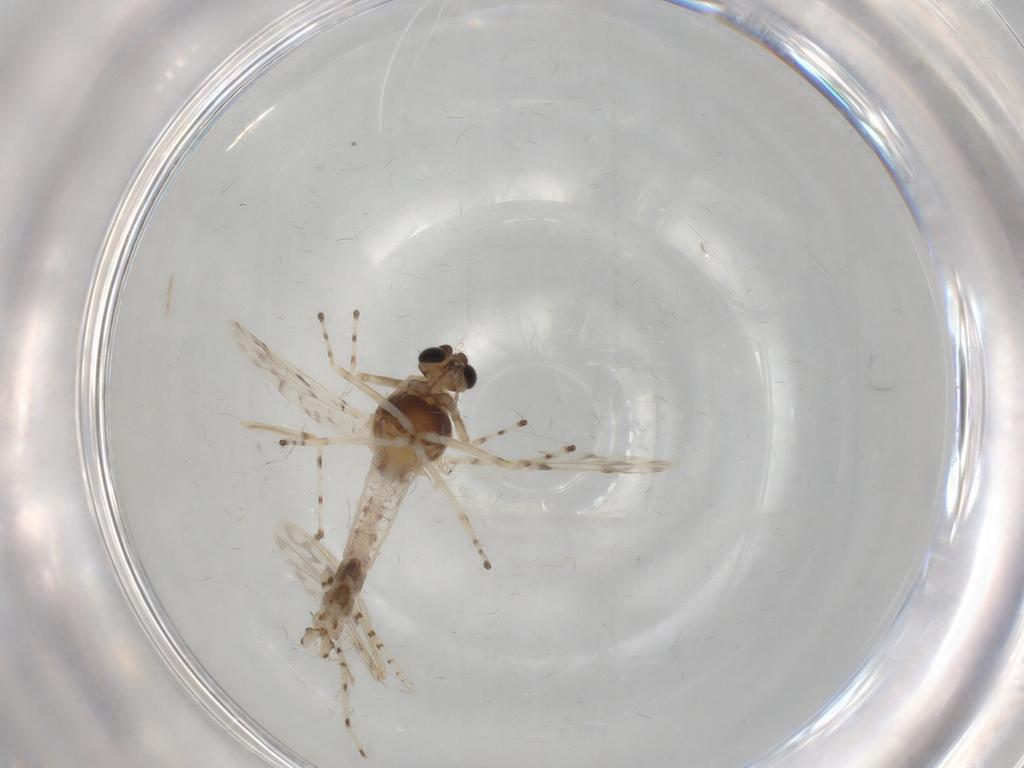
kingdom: Animalia
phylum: Arthropoda
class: Insecta
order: Diptera
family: Chironomidae
